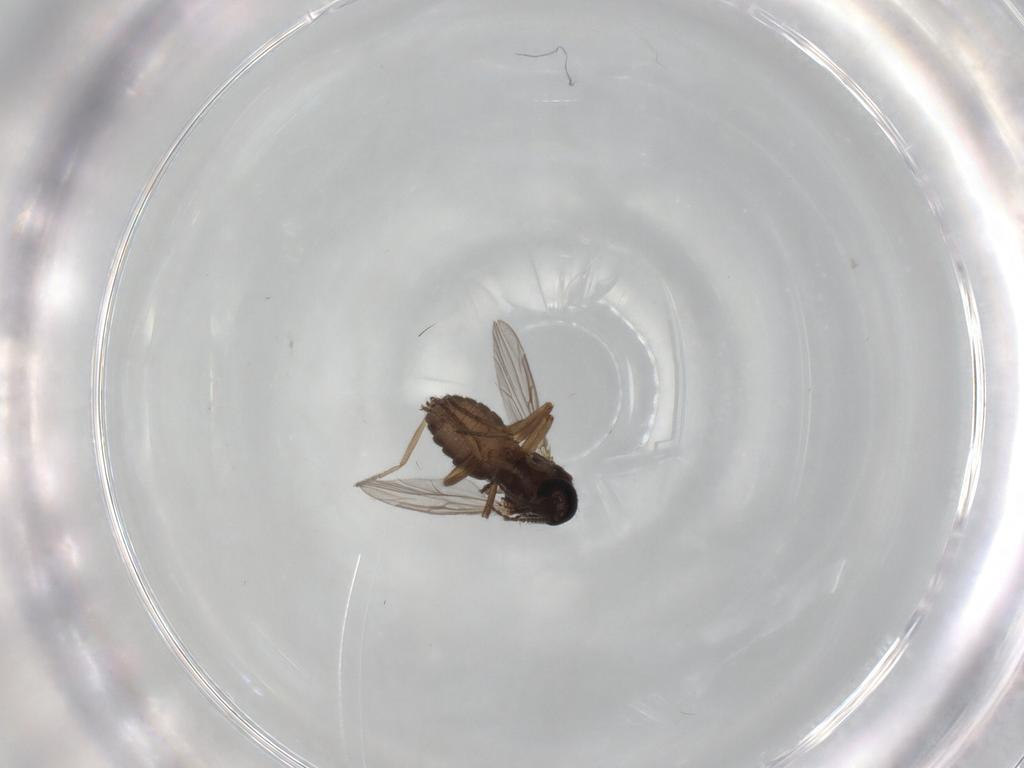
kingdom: Animalia
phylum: Arthropoda
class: Insecta
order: Diptera
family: Ceratopogonidae
